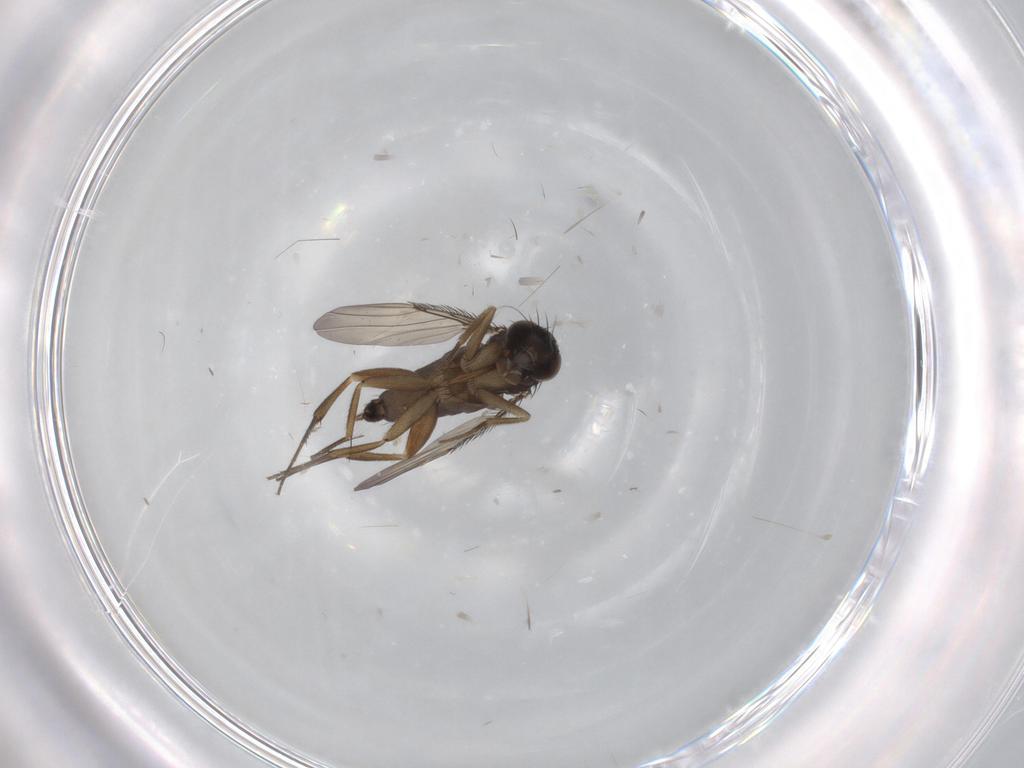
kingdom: Animalia
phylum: Arthropoda
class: Insecta
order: Diptera
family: Phoridae
